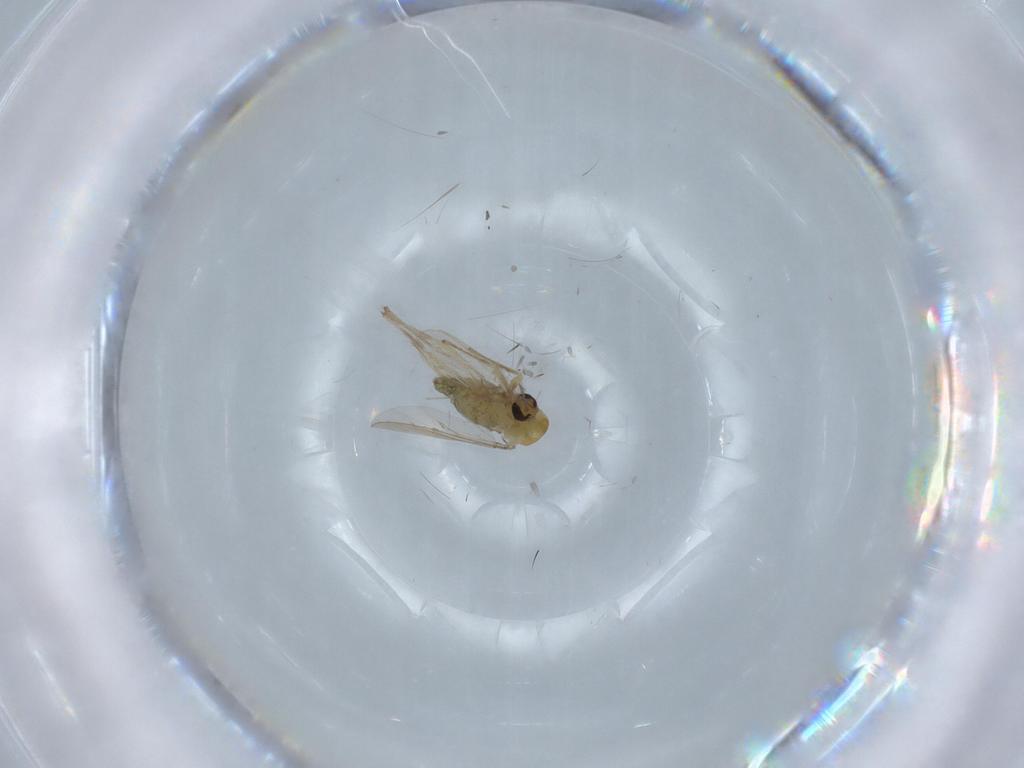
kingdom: Animalia
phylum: Arthropoda
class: Insecta
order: Diptera
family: Chironomidae
